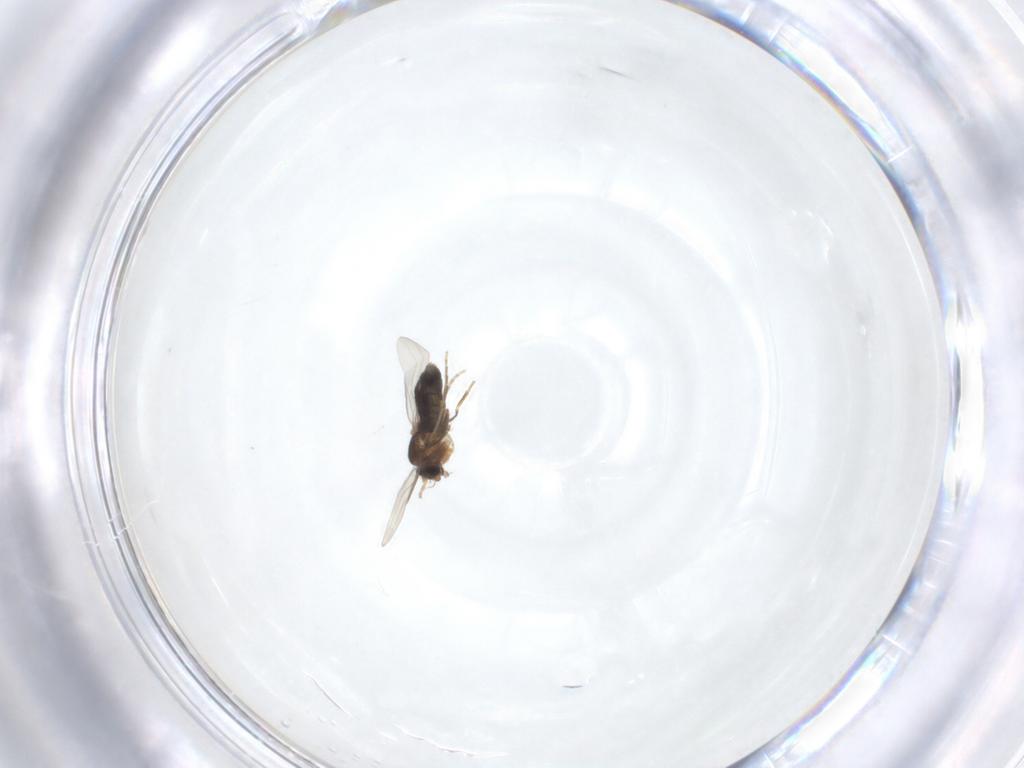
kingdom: Animalia
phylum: Arthropoda
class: Insecta
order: Diptera
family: Phoridae
